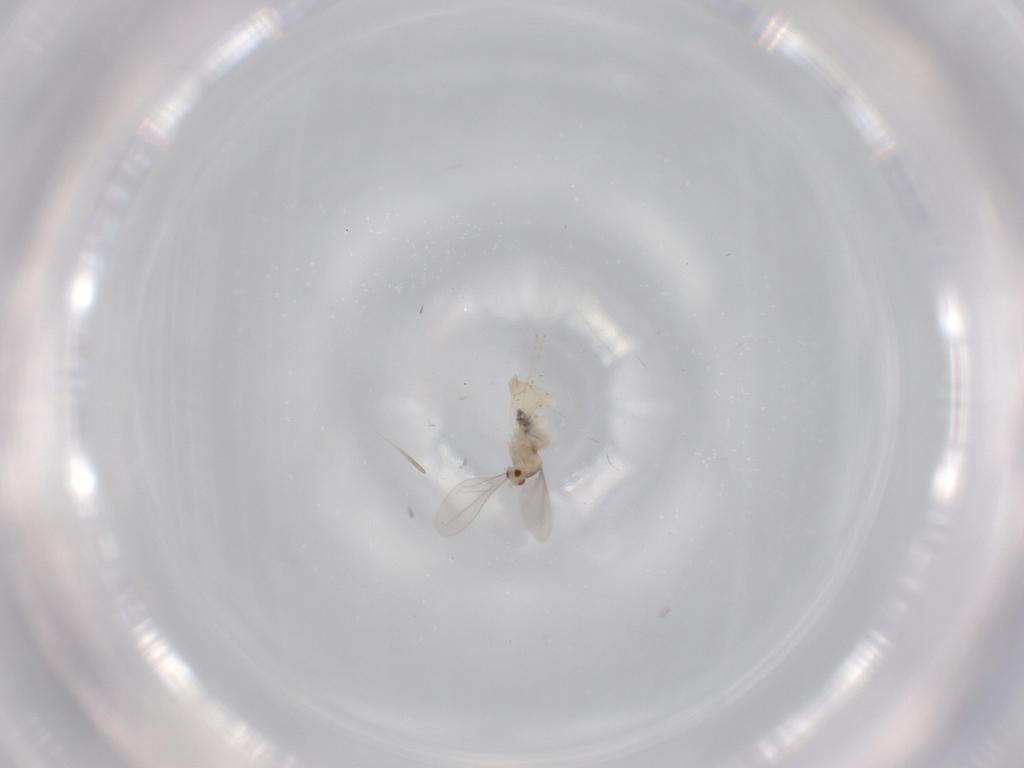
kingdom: Animalia
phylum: Arthropoda
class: Insecta
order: Diptera
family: Cecidomyiidae
